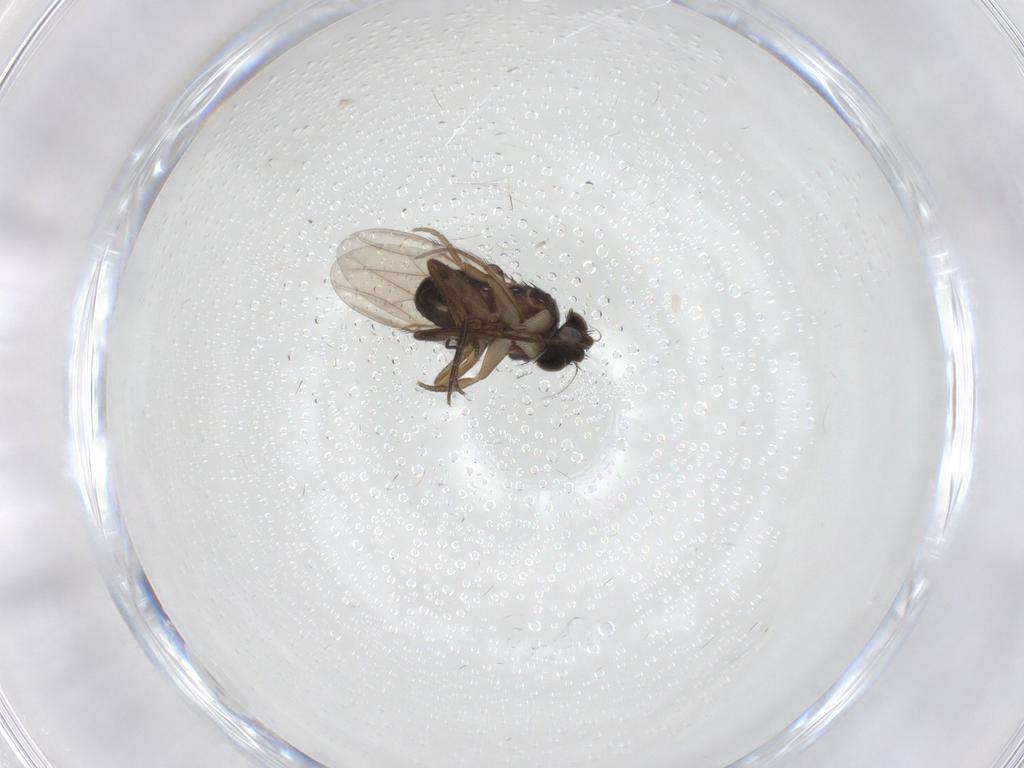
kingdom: Animalia
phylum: Arthropoda
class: Insecta
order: Diptera
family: Phoridae
